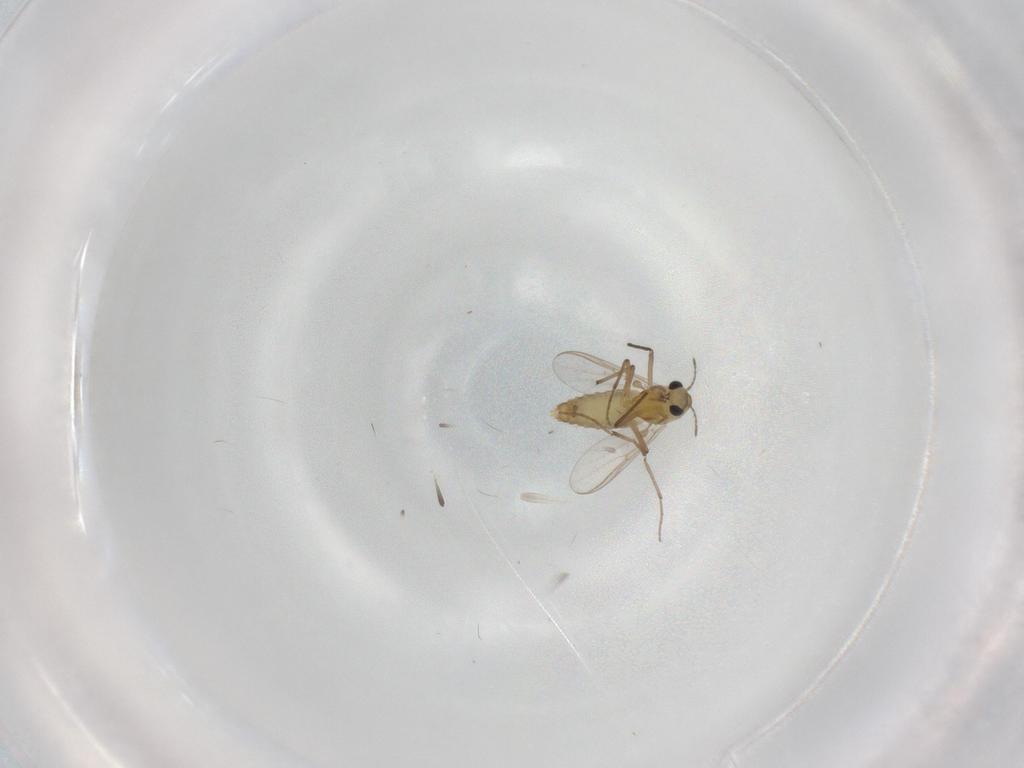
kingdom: Animalia
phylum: Arthropoda
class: Insecta
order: Diptera
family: Chironomidae
